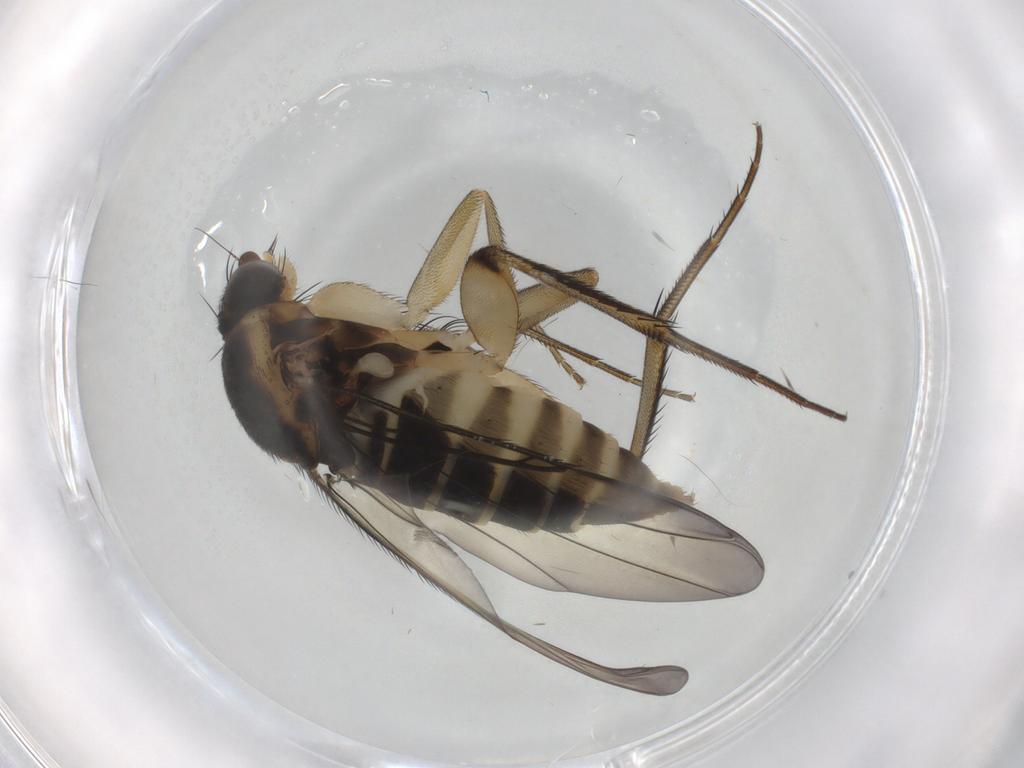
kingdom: Animalia
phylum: Arthropoda
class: Insecta
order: Diptera
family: Phoridae
